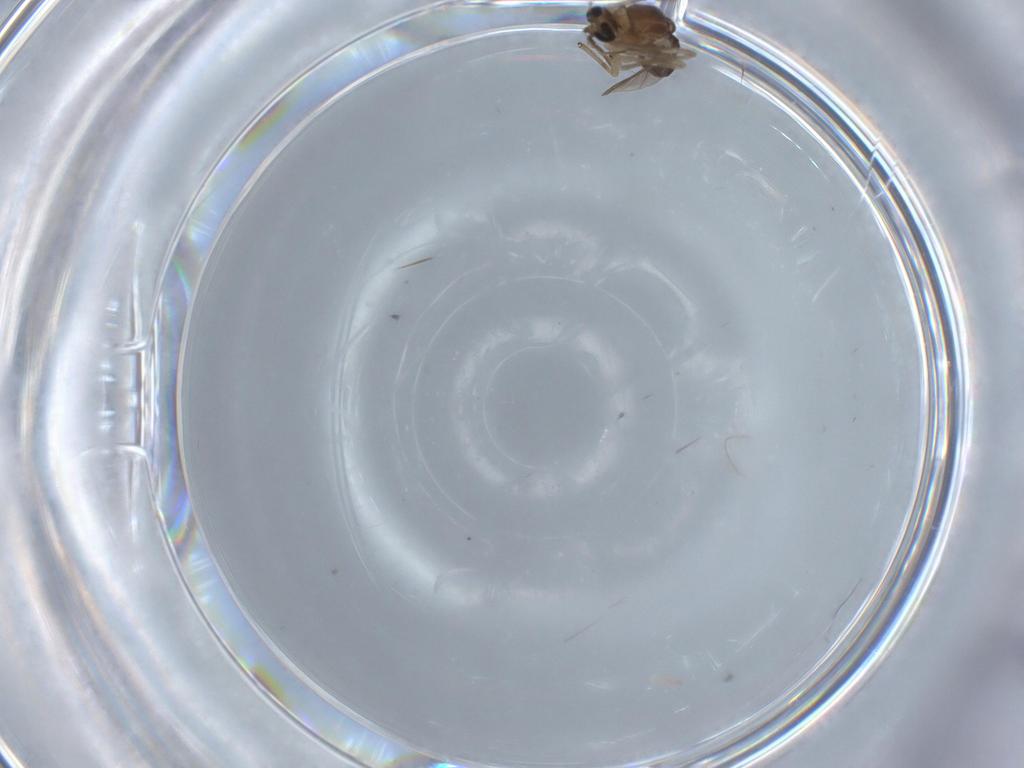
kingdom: Animalia
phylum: Arthropoda
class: Insecta
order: Diptera
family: Chironomidae
